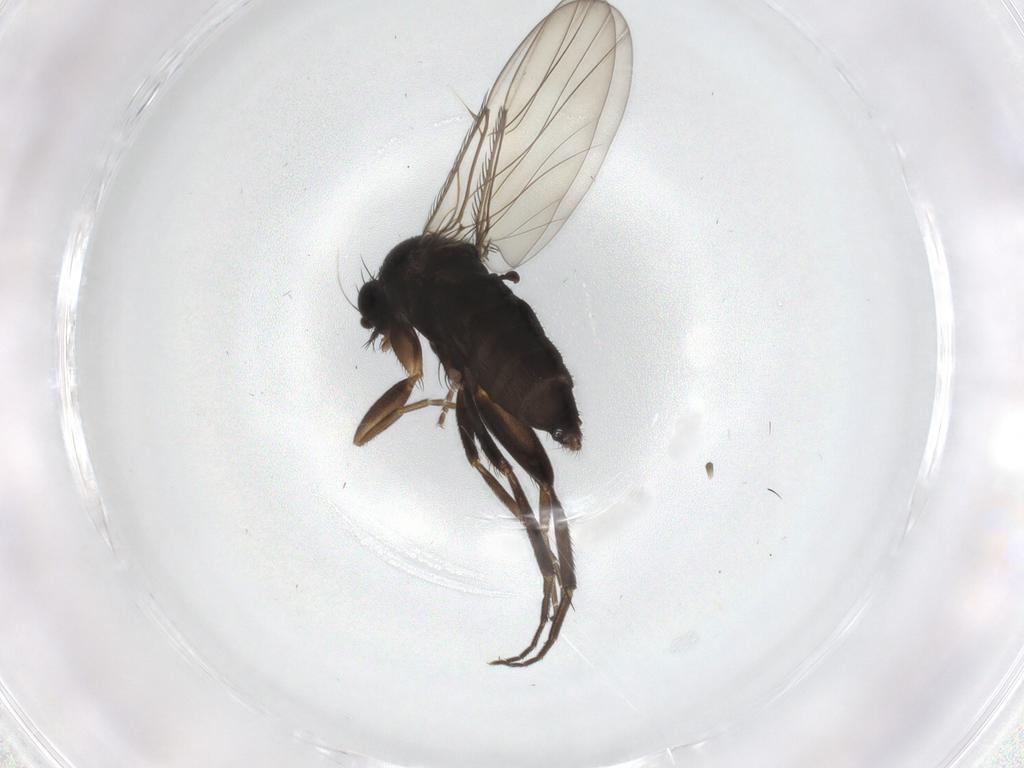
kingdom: Animalia
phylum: Arthropoda
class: Insecta
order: Diptera
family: Phoridae
